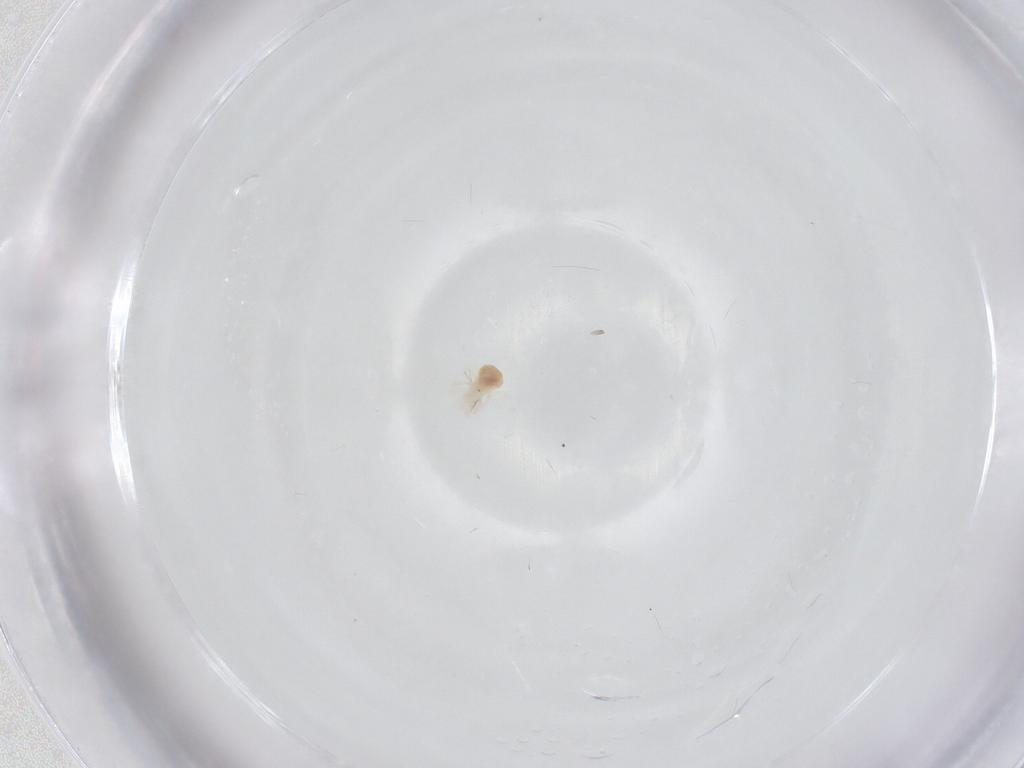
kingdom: Animalia
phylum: Arthropoda
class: Arachnida
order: Trombidiformes
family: Anystidae
